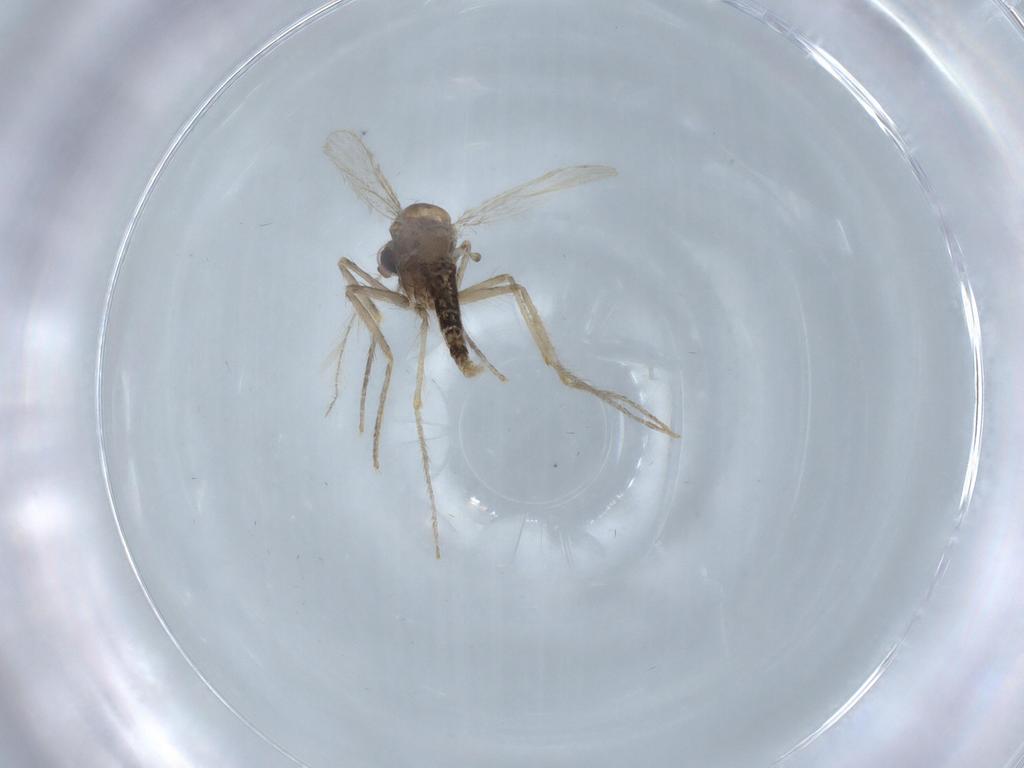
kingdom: Animalia
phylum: Arthropoda
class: Insecta
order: Diptera
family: Corethrellidae
